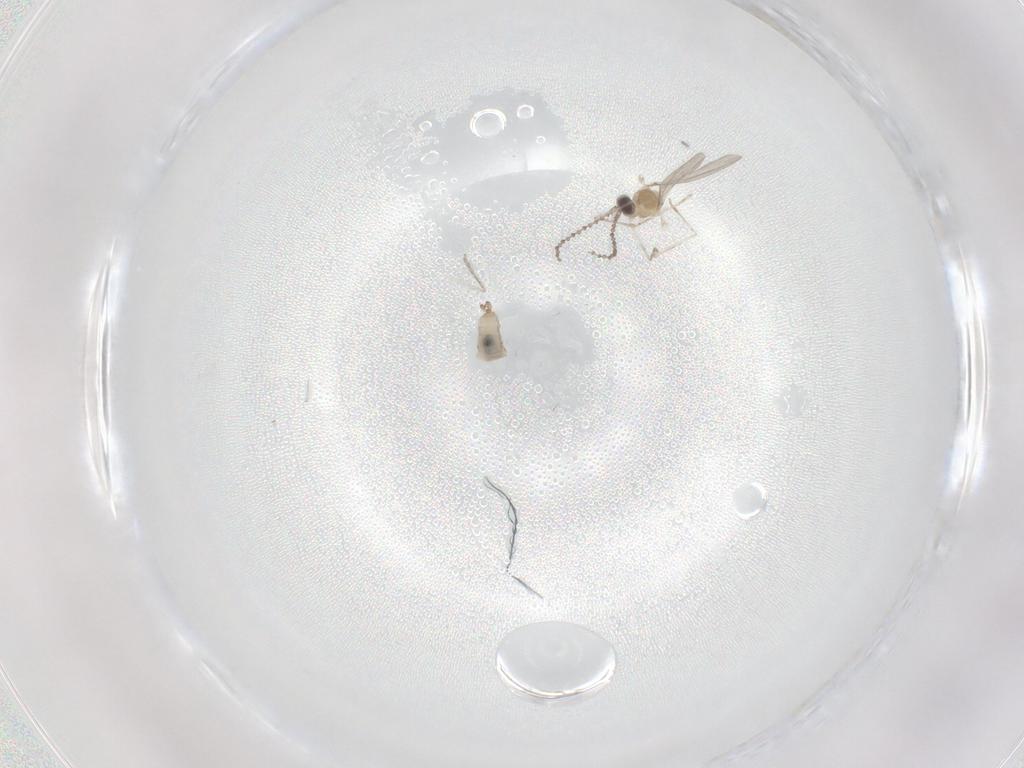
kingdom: Animalia
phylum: Arthropoda
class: Insecta
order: Diptera
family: Cecidomyiidae
